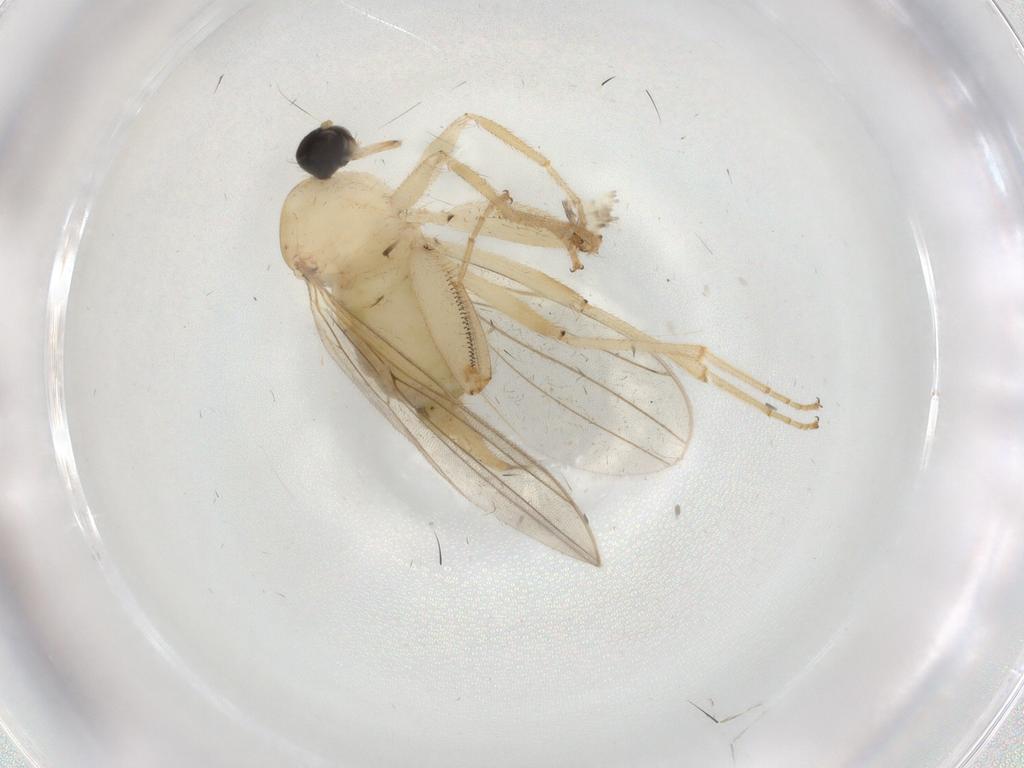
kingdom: Animalia
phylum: Arthropoda
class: Insecta
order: Diptera
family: Hybotidae
